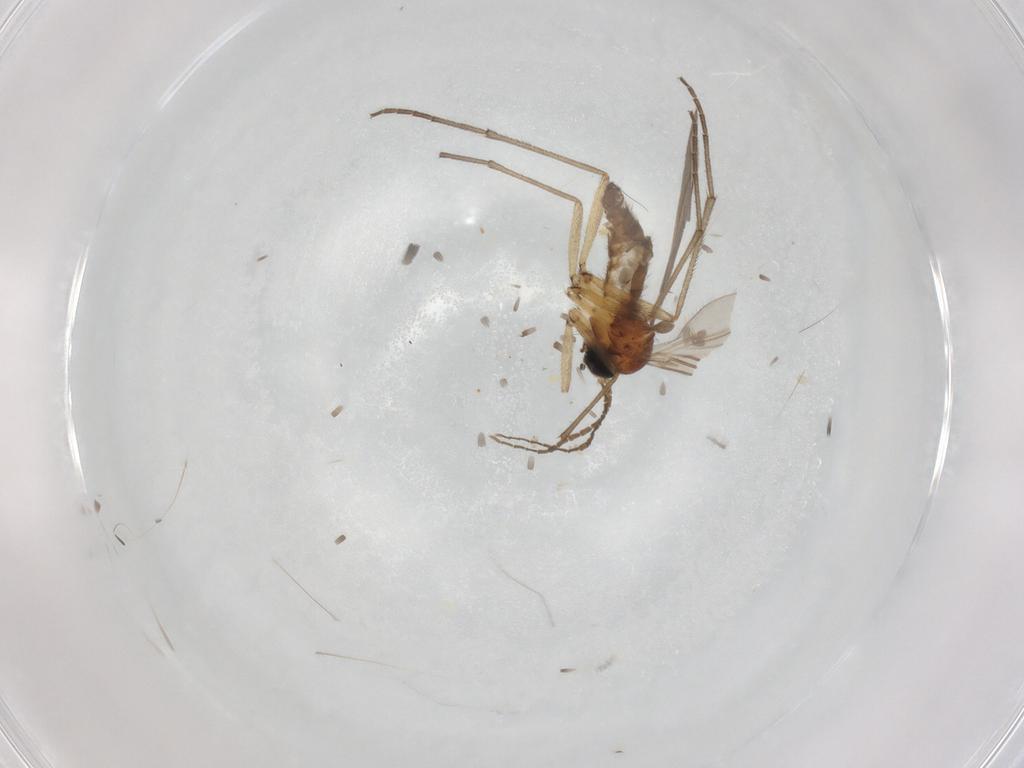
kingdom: Animalia
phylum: Arthropoda
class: Insecta
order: Diptera
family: Sciaridae
